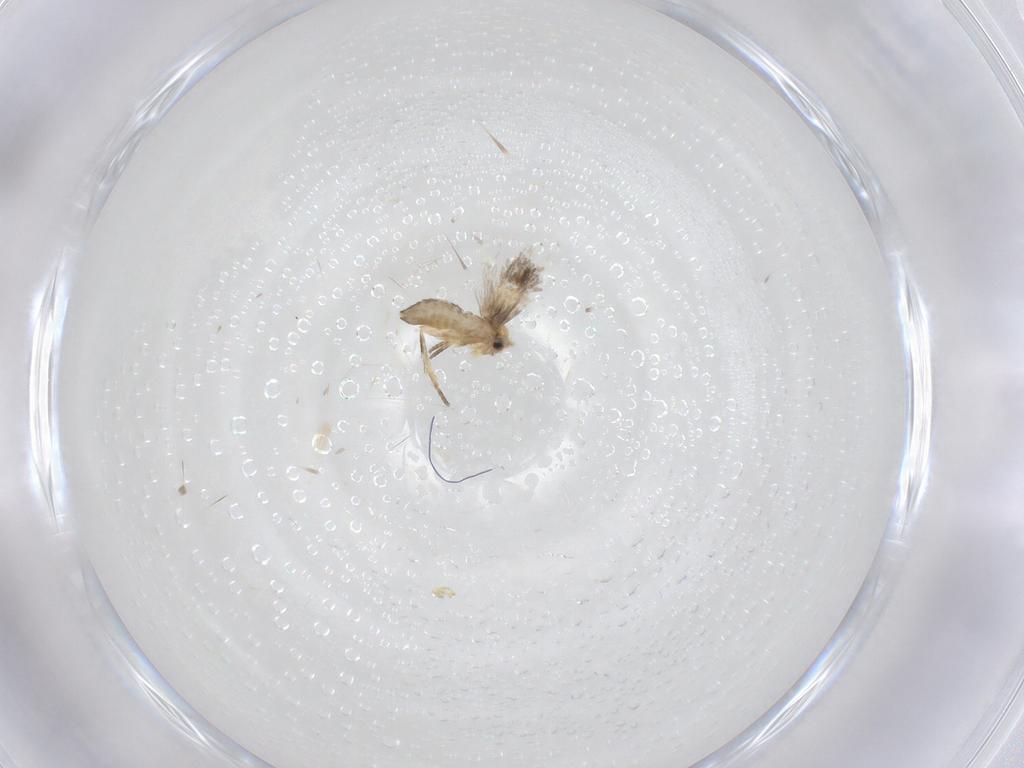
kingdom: Animalia
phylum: Arthropoda
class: Insecta
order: Lepidoptera
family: Nepticulidae
